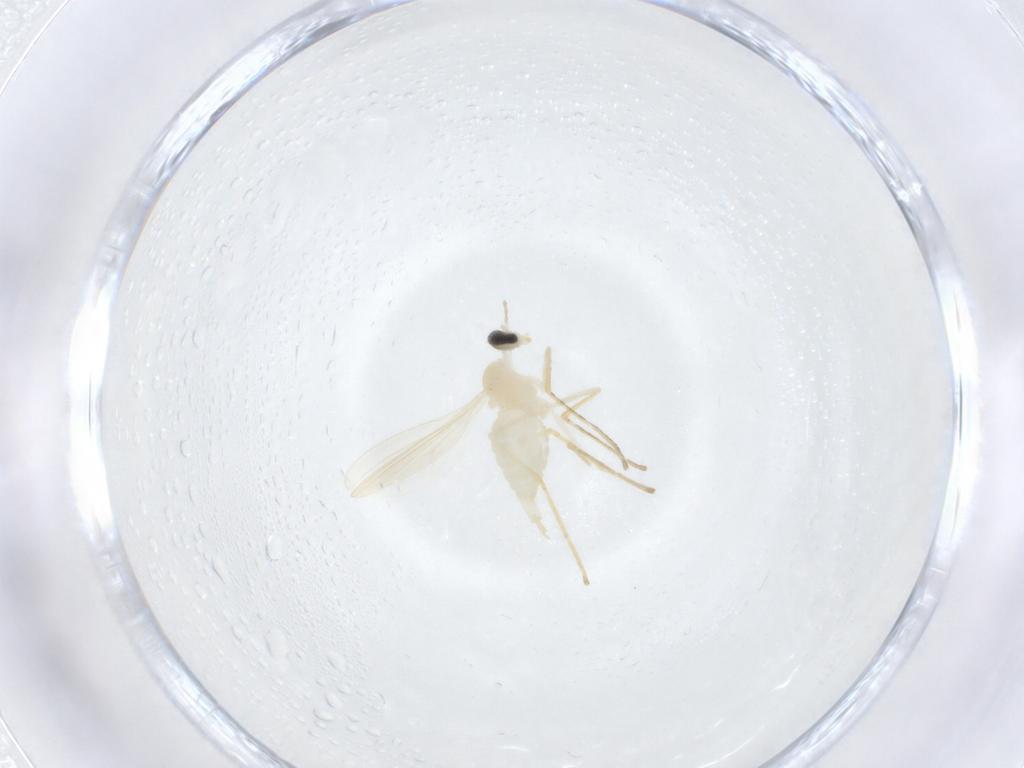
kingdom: Animalia
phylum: Arthropoda
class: Insecta
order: Diptera
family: Cecidomyiidae
